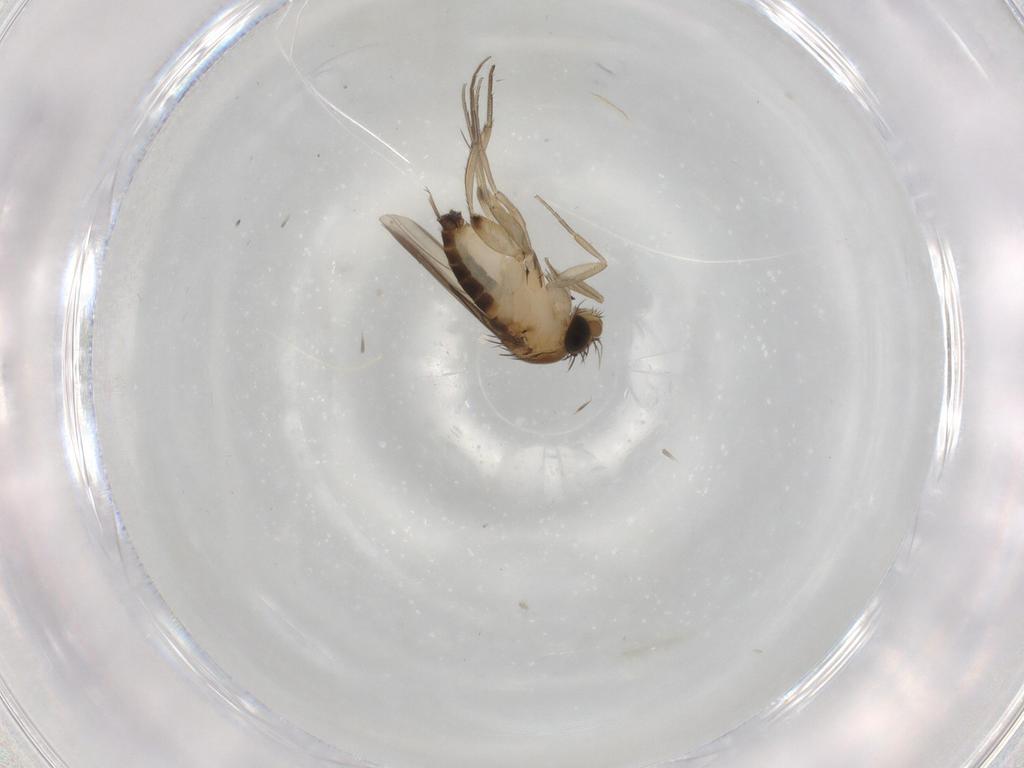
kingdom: Animalia
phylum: Arthropoda
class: Insecta
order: Diptera
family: Phoridae
